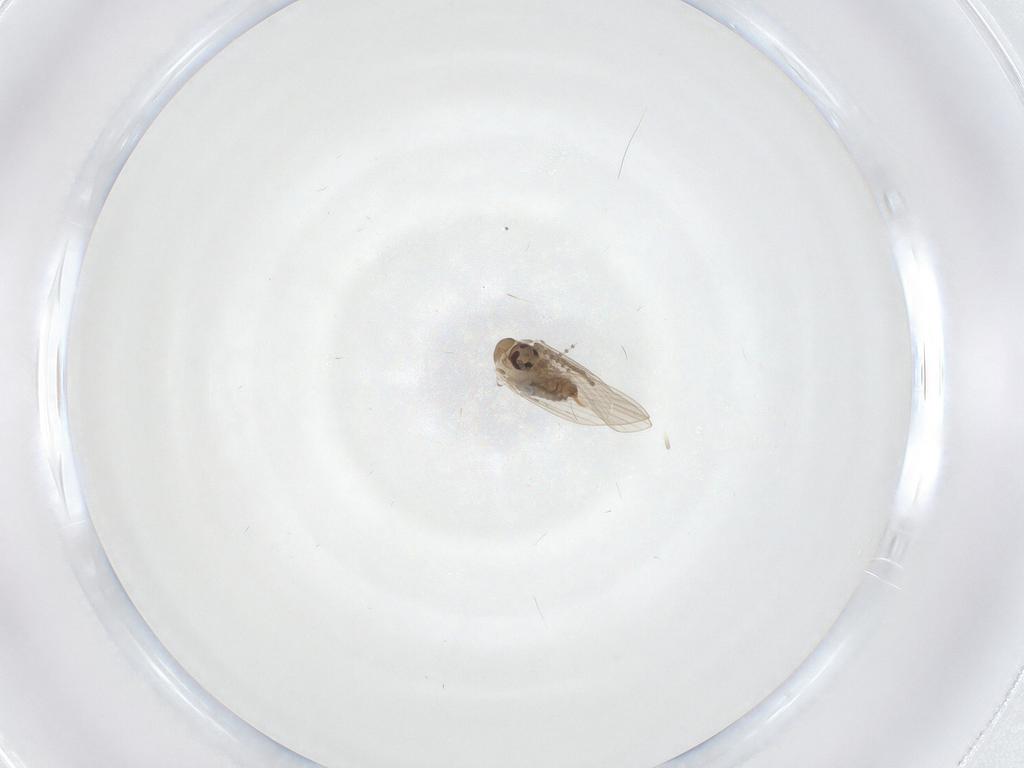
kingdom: Animalia
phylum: Arthropoda
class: Insecta
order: Diptera
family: Psychodidae
